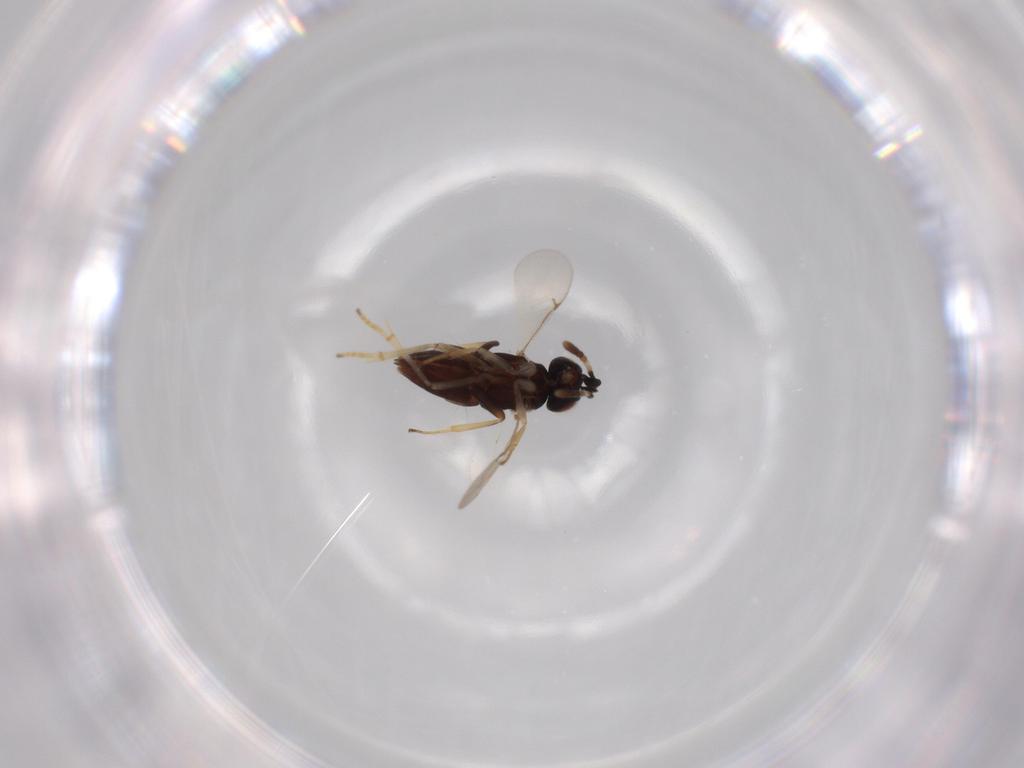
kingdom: Animalia
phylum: Arthropoda
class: Insecta
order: Hymenoptera
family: Encyrtidae
